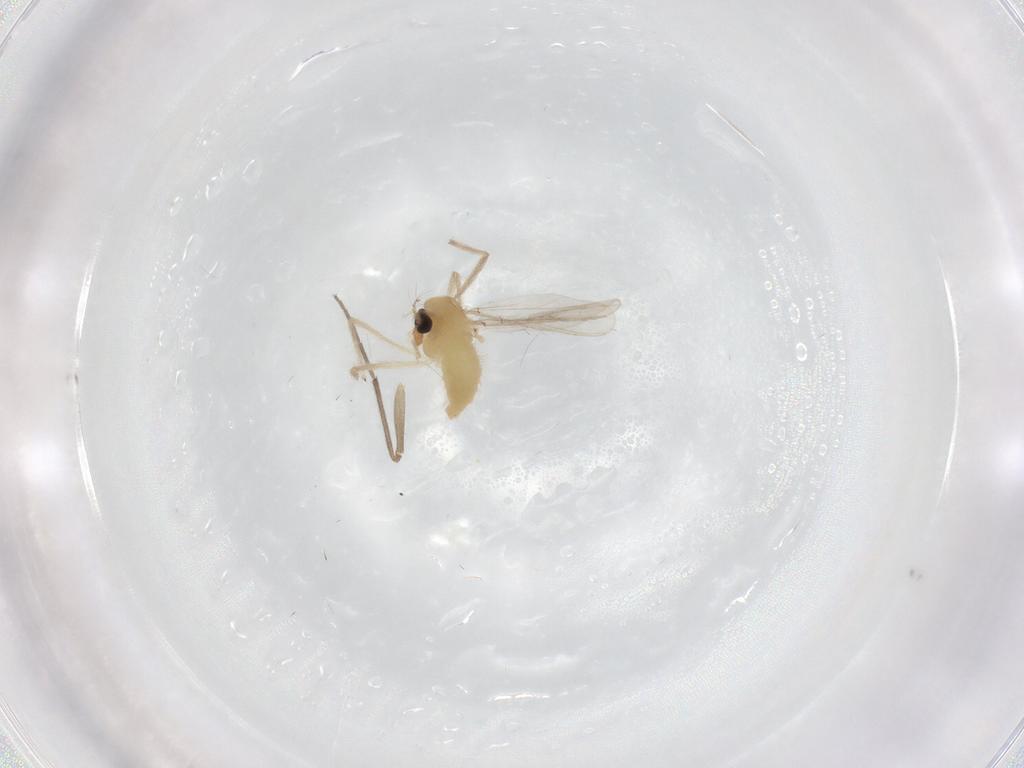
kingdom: Animalia
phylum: Arthropoda
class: Insecta
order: Diptera
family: Chironomidae
